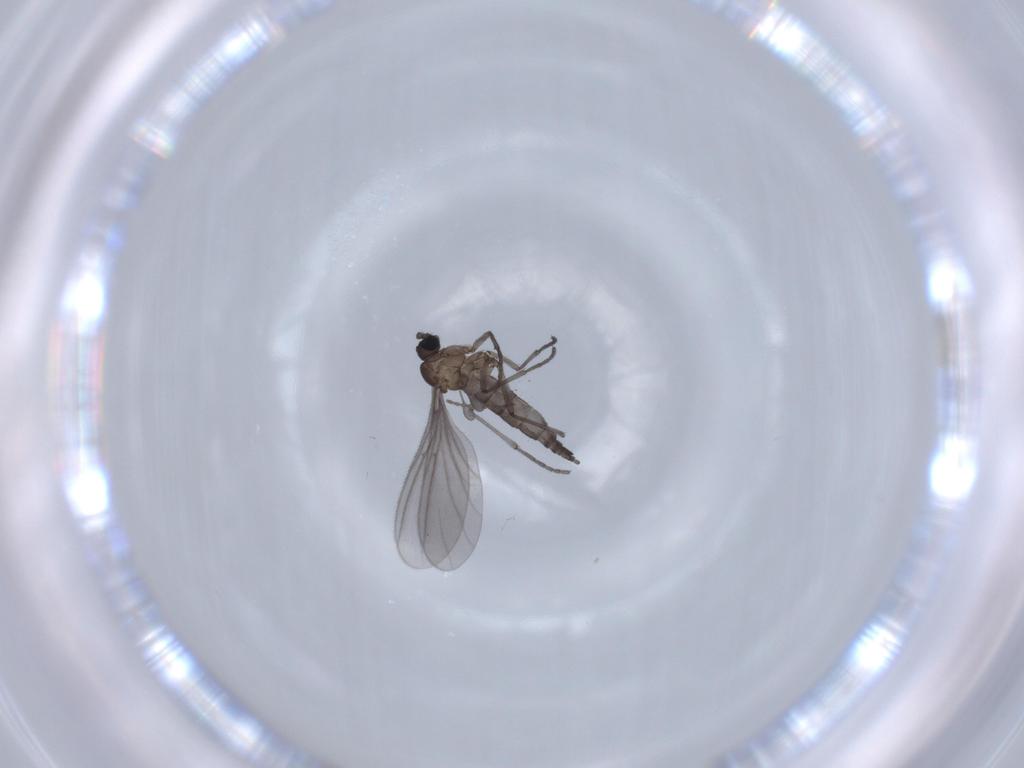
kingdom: Animalia
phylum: Arthropoda
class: Insecta
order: Diptera
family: Sciaridae
